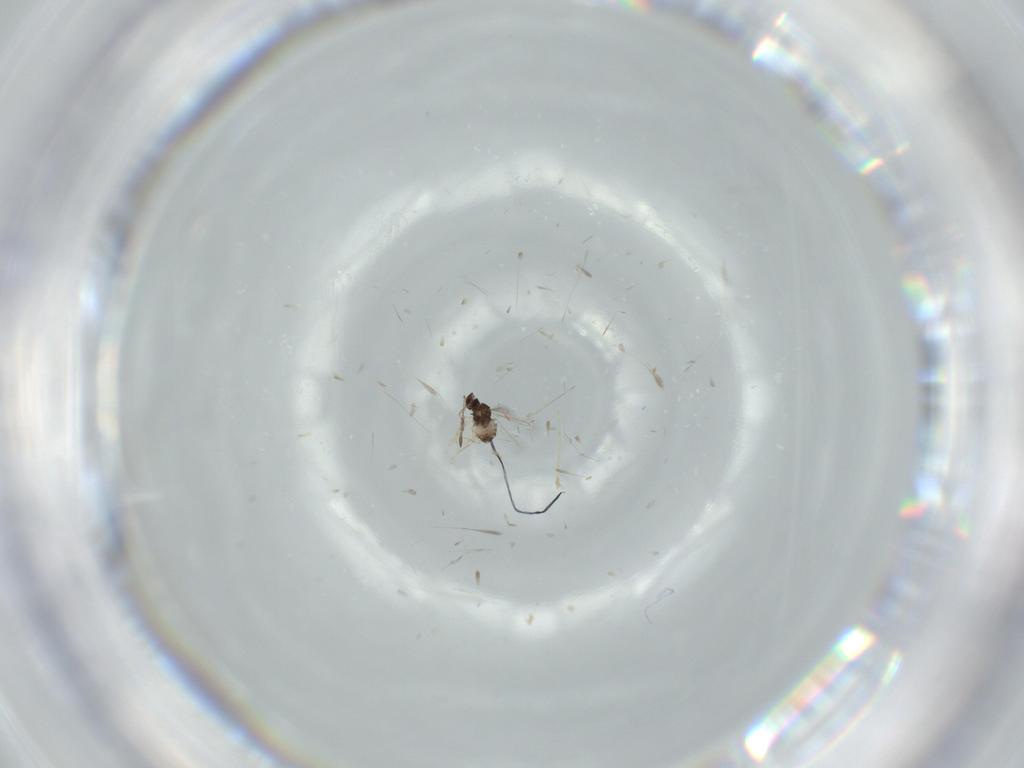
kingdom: Animalia
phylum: Arthropoda
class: Insecta
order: Hymenoptera
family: Mymaridae
